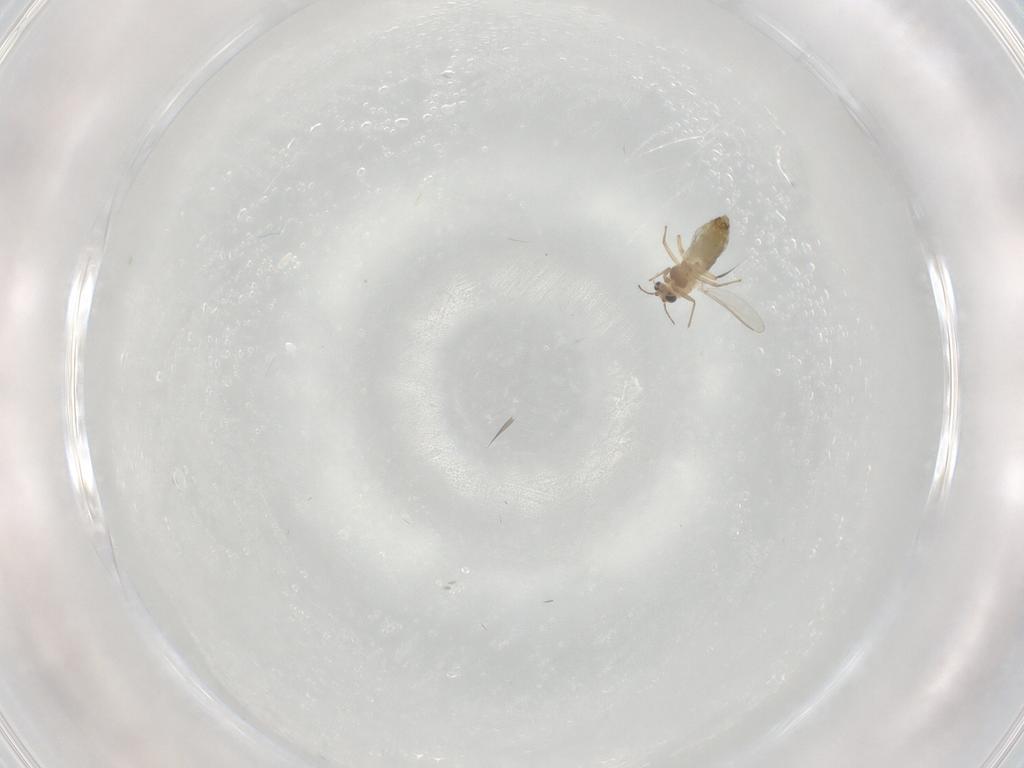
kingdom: Animalia
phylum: Arthropoda
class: Insecta
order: Diptera
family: Chironomidae
